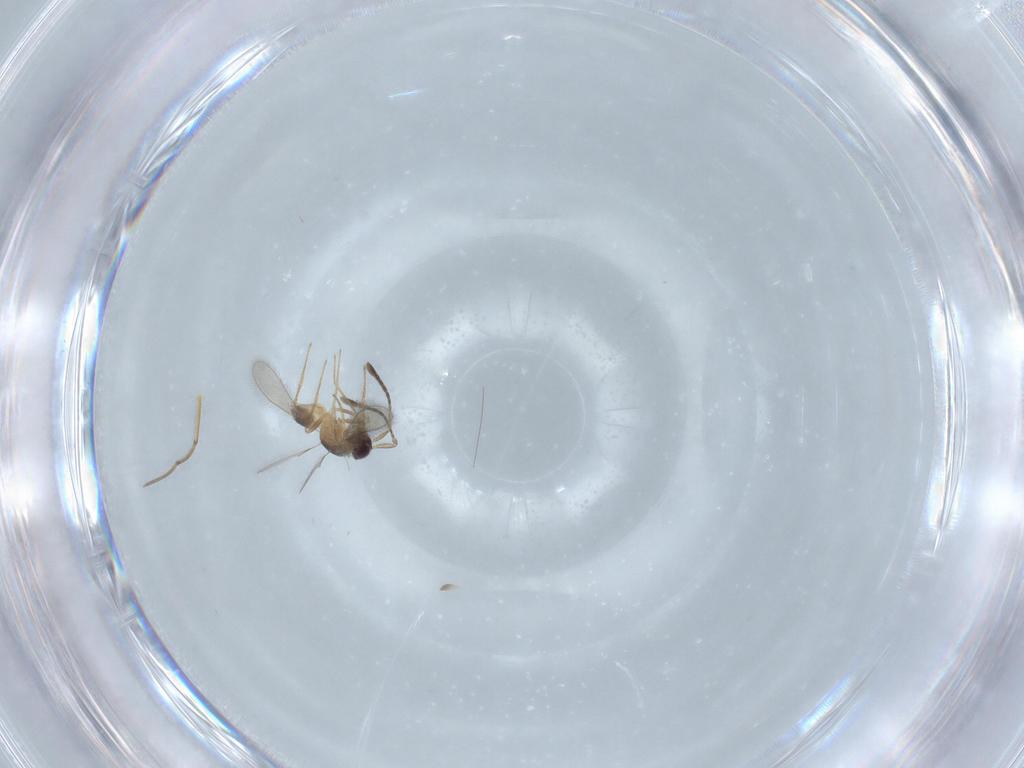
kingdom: Animalia
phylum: Arthropoda
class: Insecta
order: Hymenoptera
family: Mymaridae
